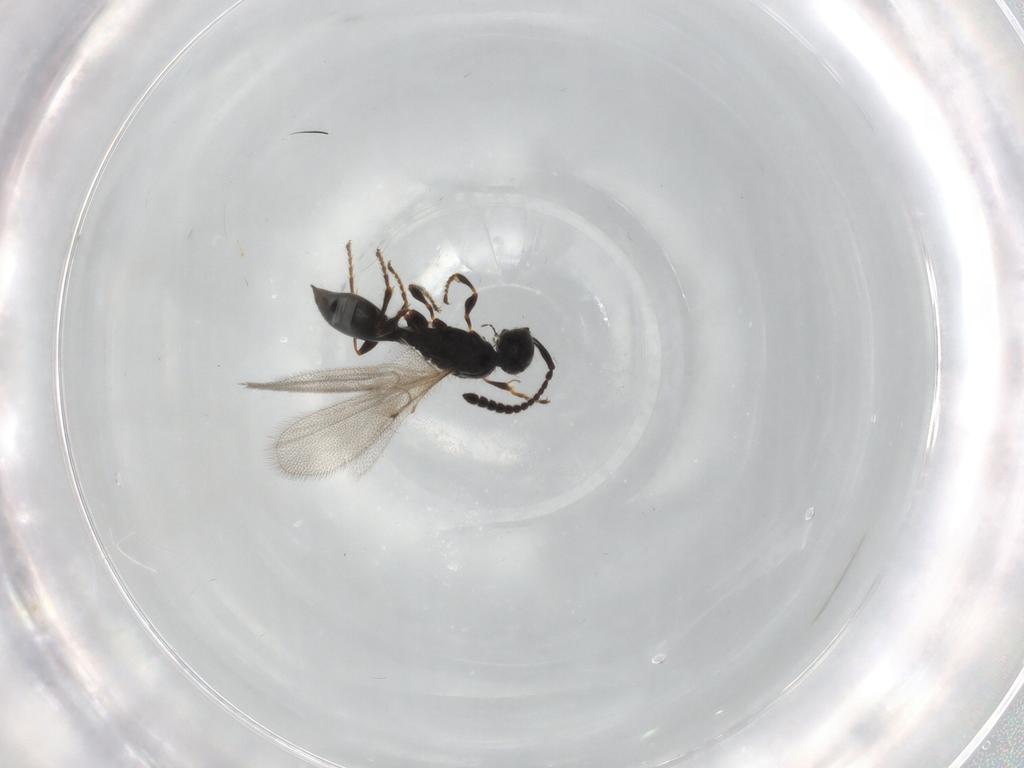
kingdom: Animalia
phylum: Arthropoda
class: Insecta
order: Hymenoptera
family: Diapriidae
